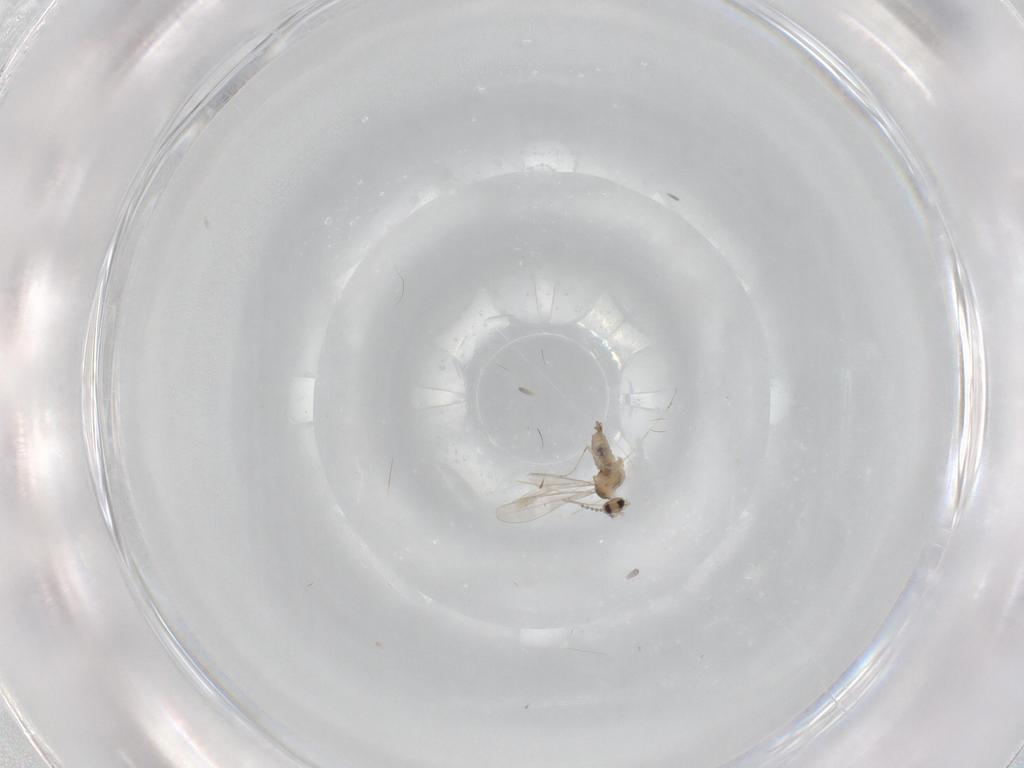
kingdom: Animalia
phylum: Arthropoda
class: Insecta
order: Diptera
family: Cecidomyiidae
